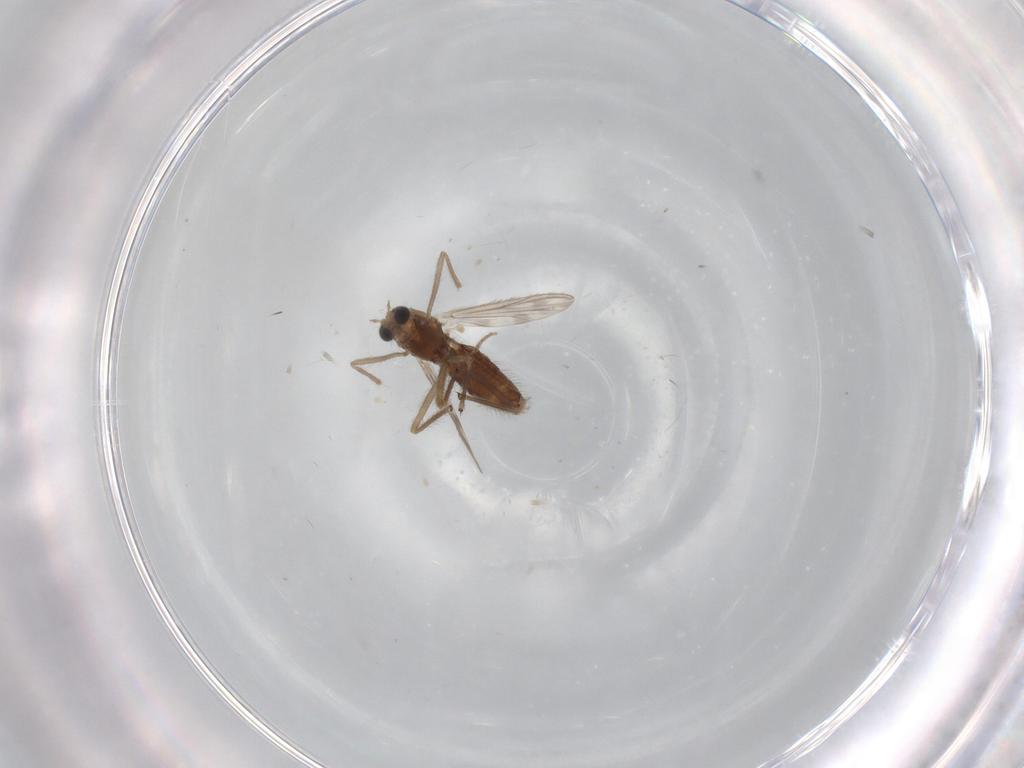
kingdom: Animalia
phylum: Arthropoda
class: Insecta
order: Diptera
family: Chironomidae
